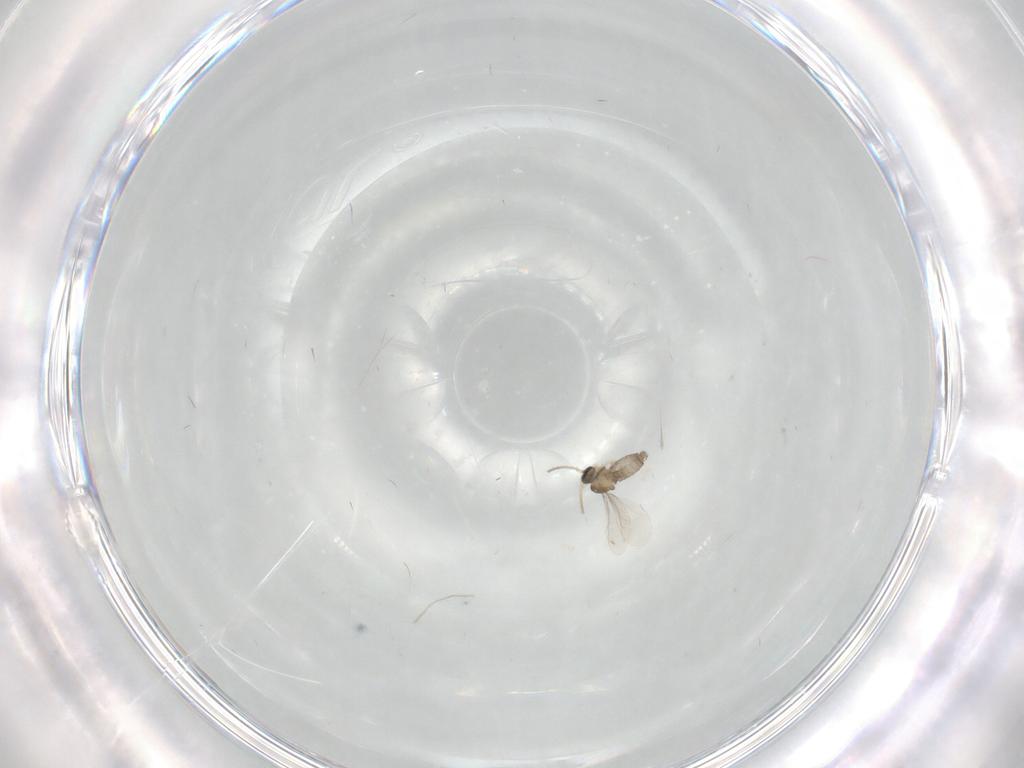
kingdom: Animalia
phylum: Arthropoda
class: Insecta
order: Diptera
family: Cecidomyiidae
